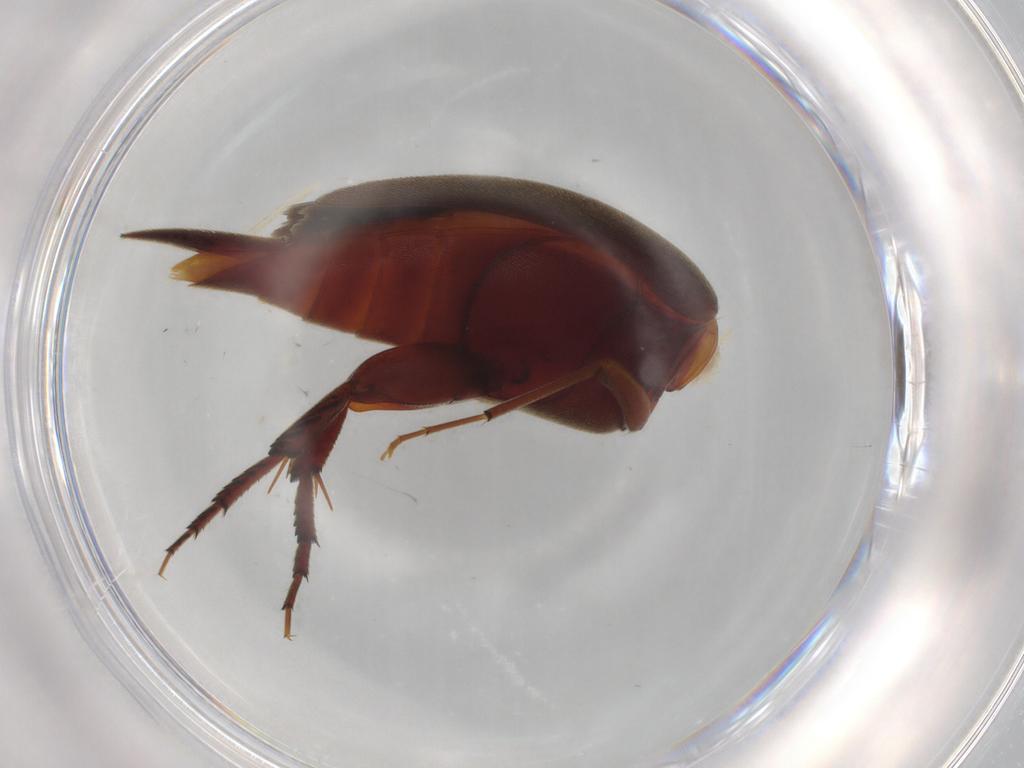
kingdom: Animalia
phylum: Arthropoda
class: Insecta
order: Coleoptera
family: Mordellidae
